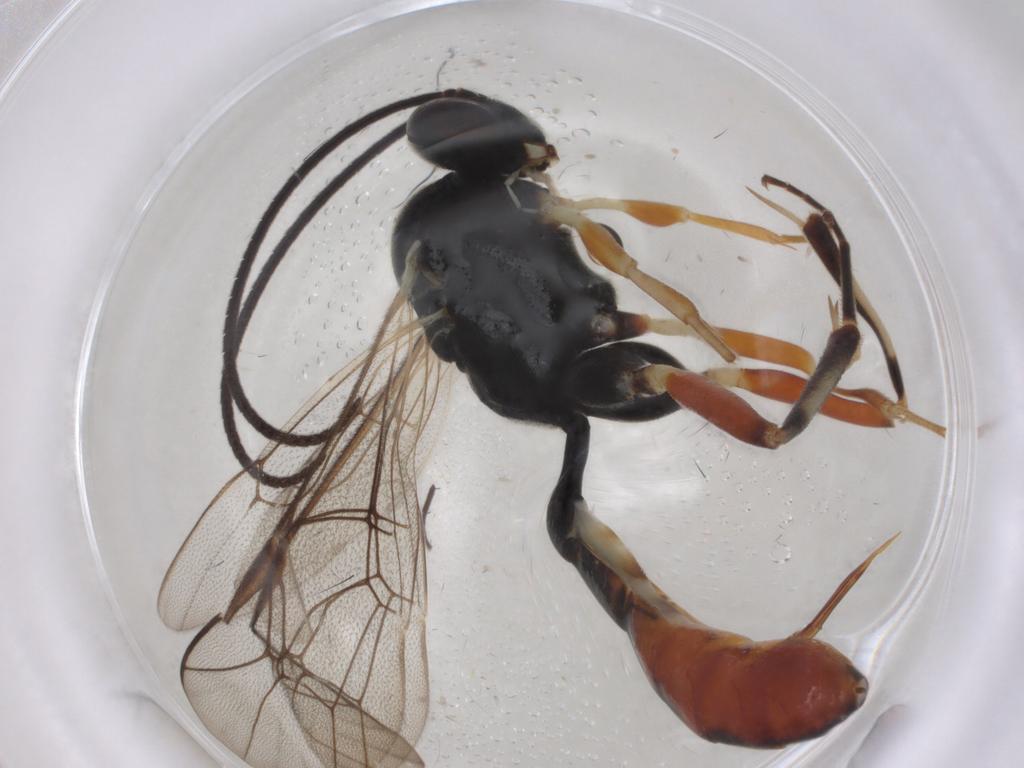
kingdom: Animalia
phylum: Arthropoda
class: Insecta
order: Hymenoptera
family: Ichneumonidae
